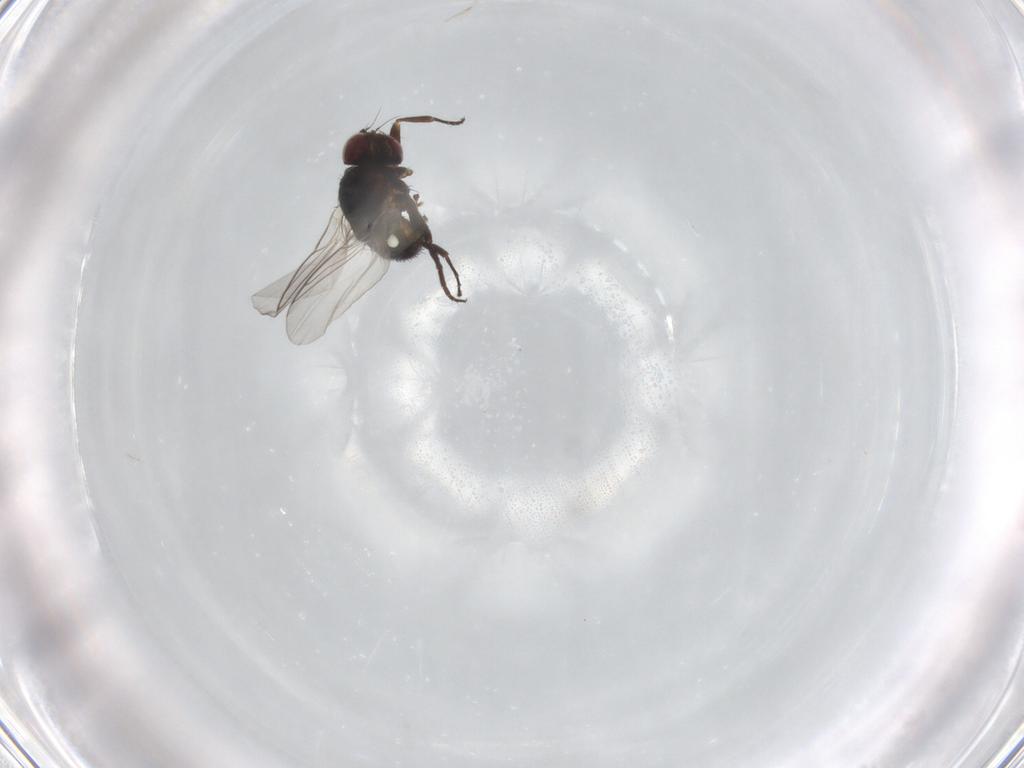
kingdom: Animalia
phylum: Arthropoda
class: Insecta
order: Diptera
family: Agromyzidae
